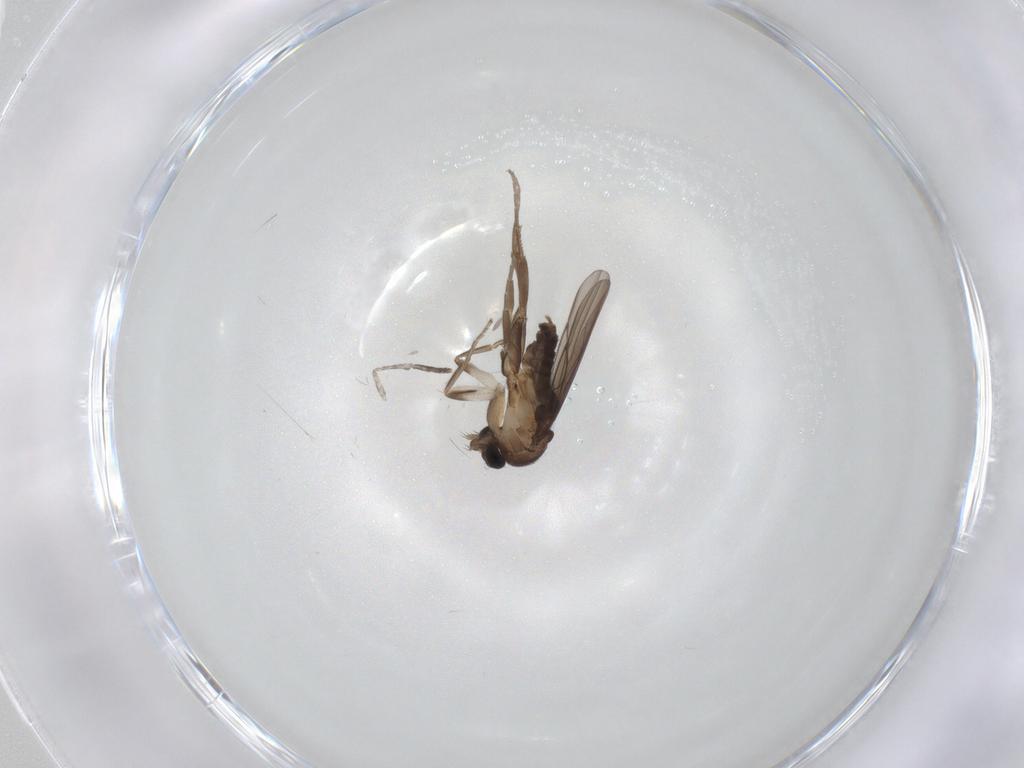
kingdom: Animalia
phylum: Arthropoda
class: Insecta
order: Diptera
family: Psychodidae
